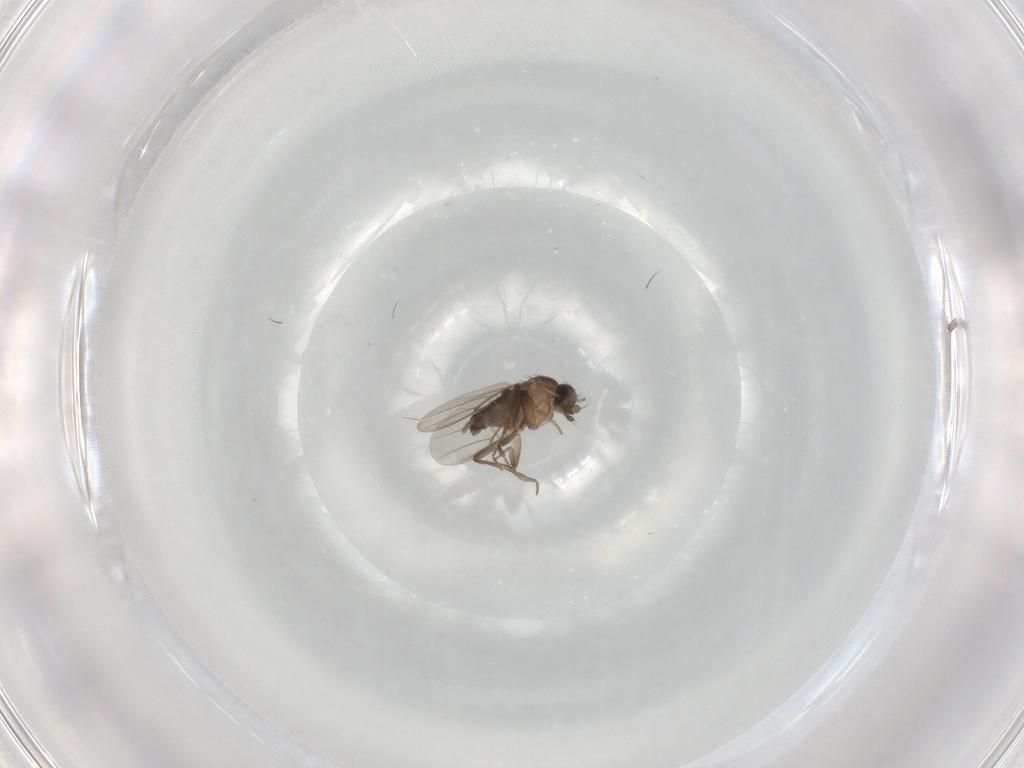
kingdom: Animalia
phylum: Arthropoda
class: Insecta
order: Diptera
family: Phoridae
